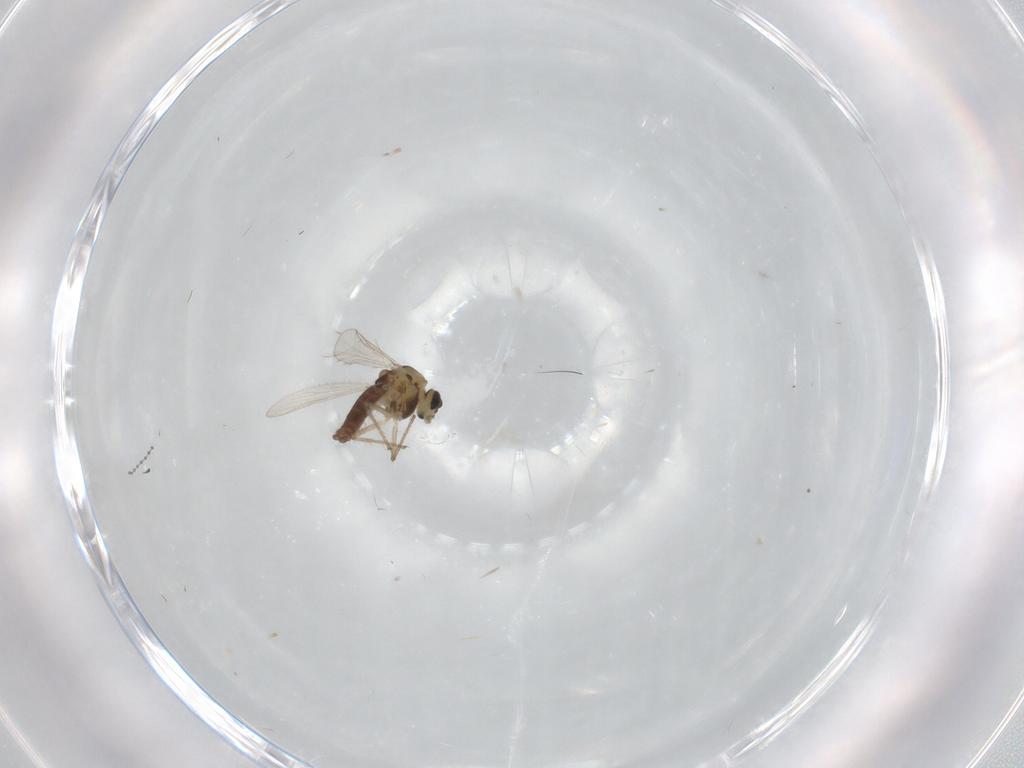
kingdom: Animalia
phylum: Arthropoda
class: Insecta
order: Diptera
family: Chironomidae
